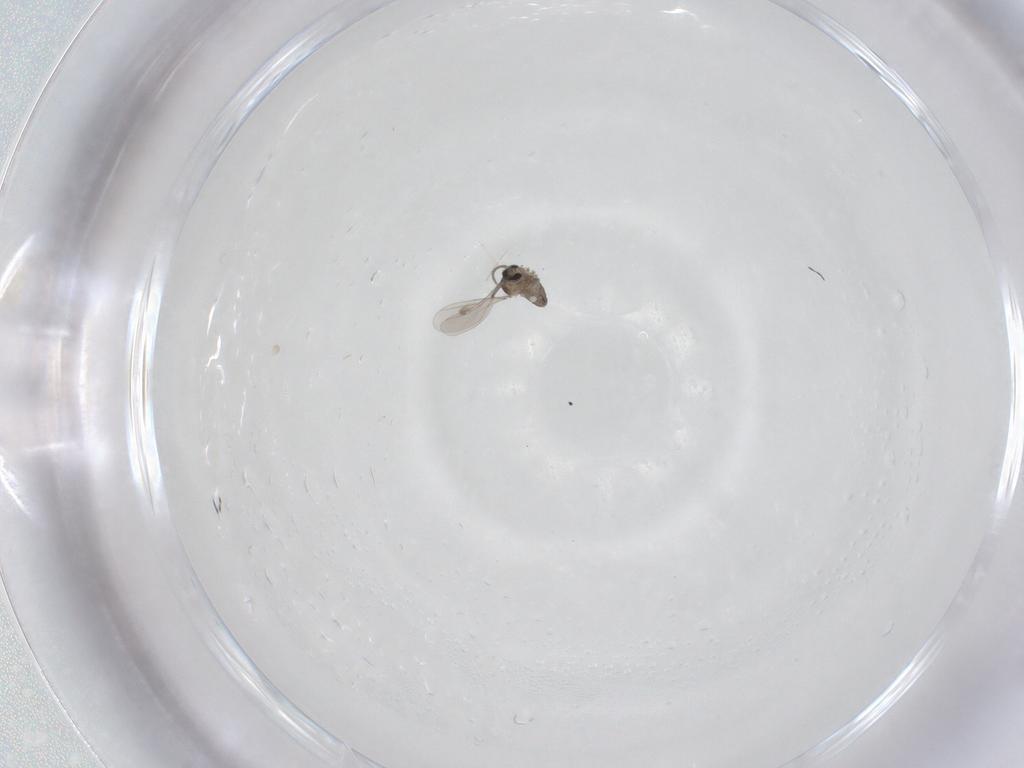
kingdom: Animalia
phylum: Arthropoda
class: Insecta
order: Diptera
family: Cecidomyiidae
